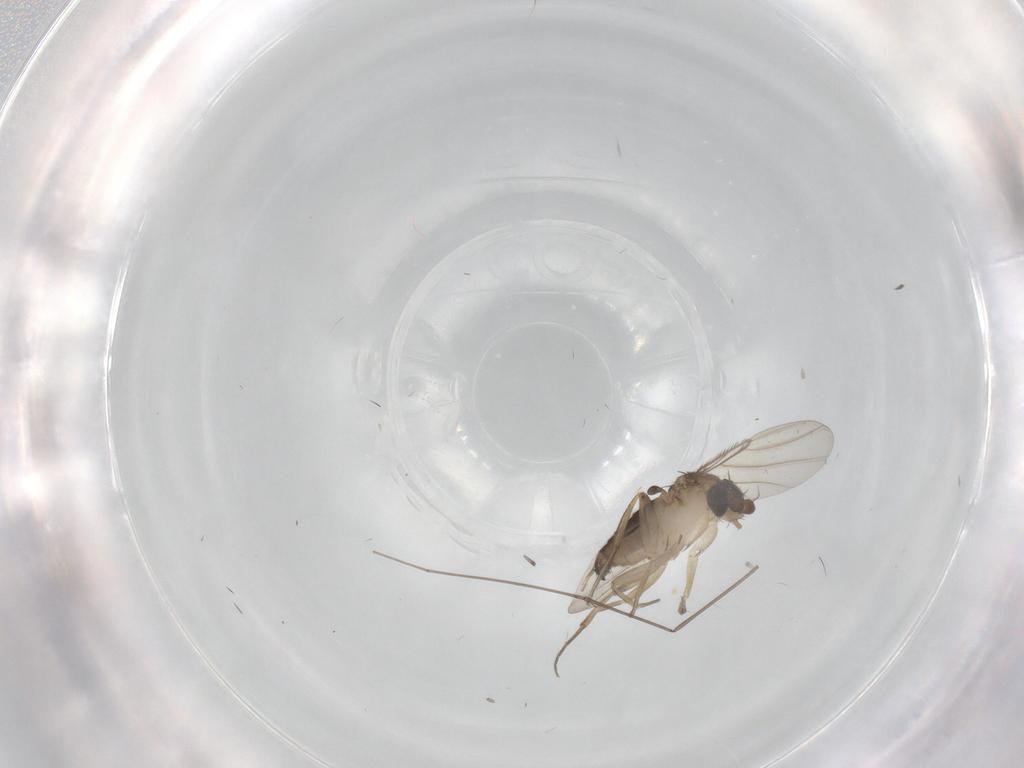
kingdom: Animalia
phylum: Arthropoda
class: Insecta
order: Diptera
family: Phoridae
